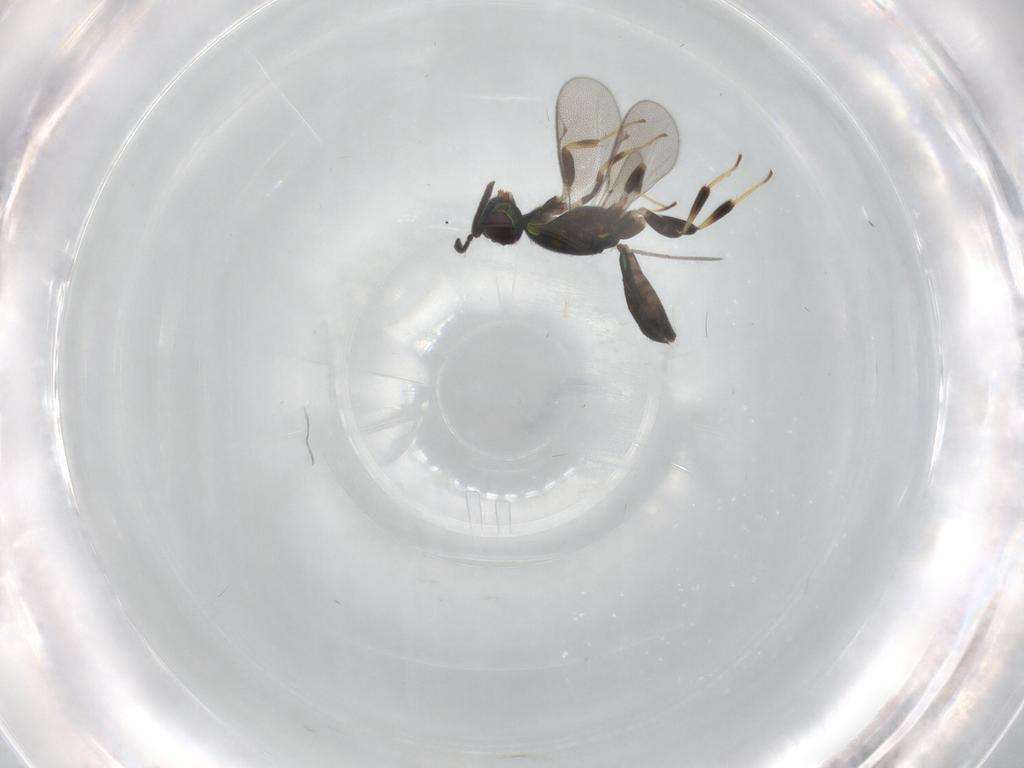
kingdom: Animalia
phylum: Arthropoda
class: Insecta
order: Hymenoptera
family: Eupelmidae
